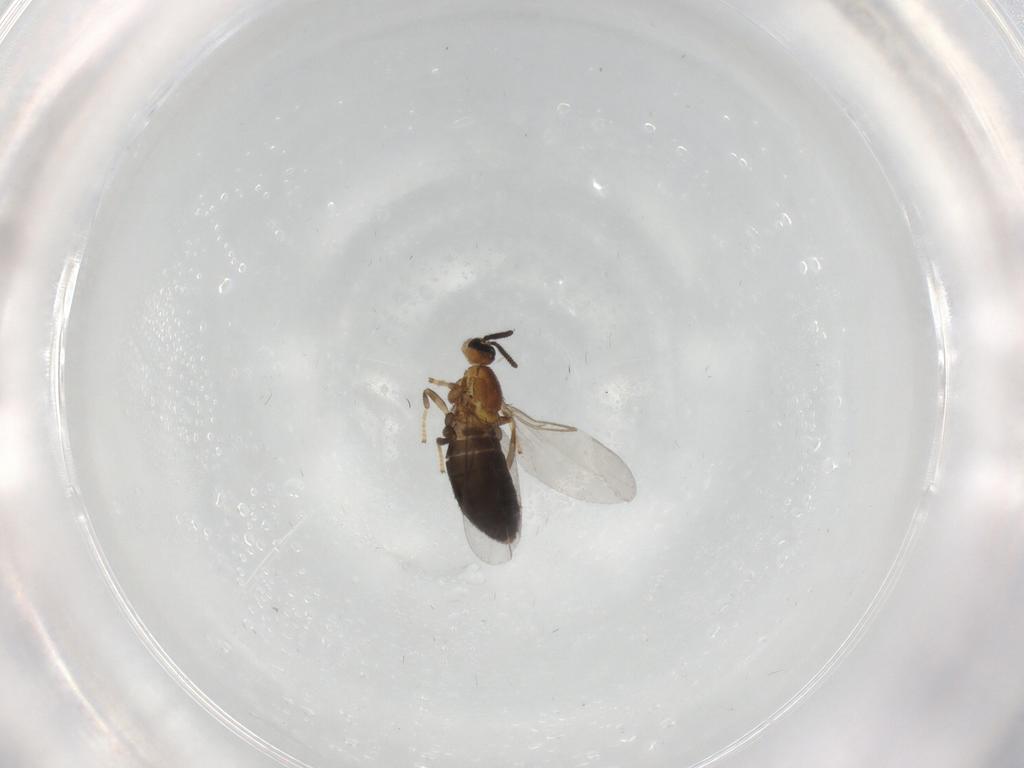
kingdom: Animalia
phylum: Arthropoda
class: Insecta
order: Diptera
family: Scatopsidae
